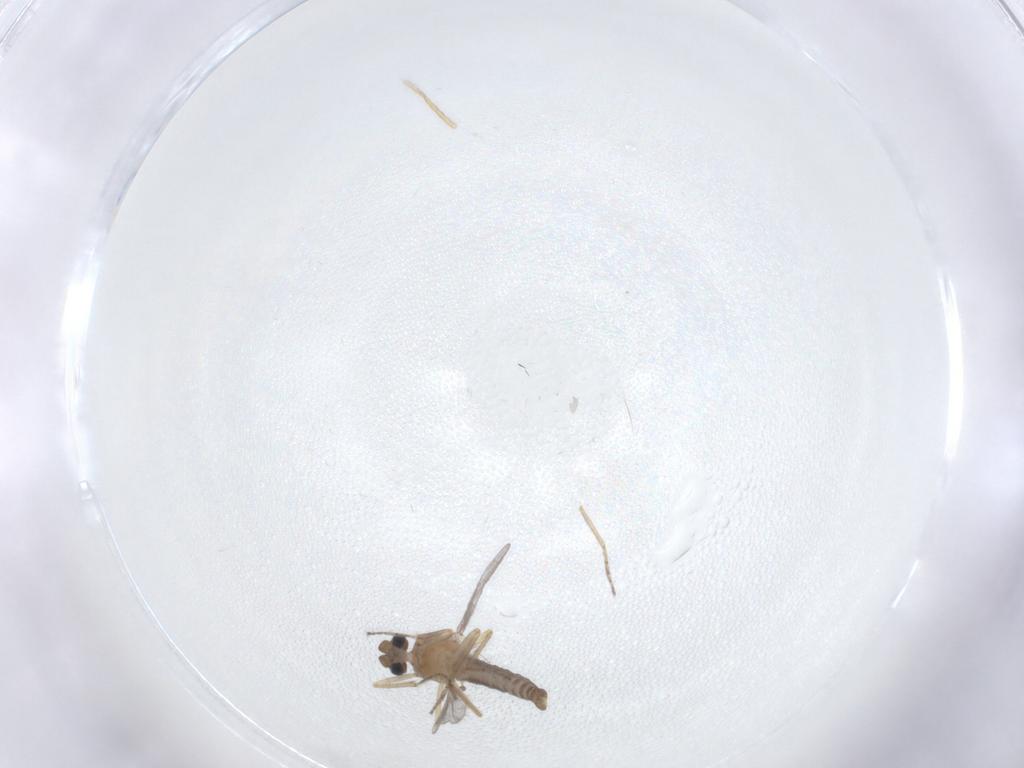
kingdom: Animalia
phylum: Arthropoda
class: Insecta
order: Diptera
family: Ceratopogonidae
